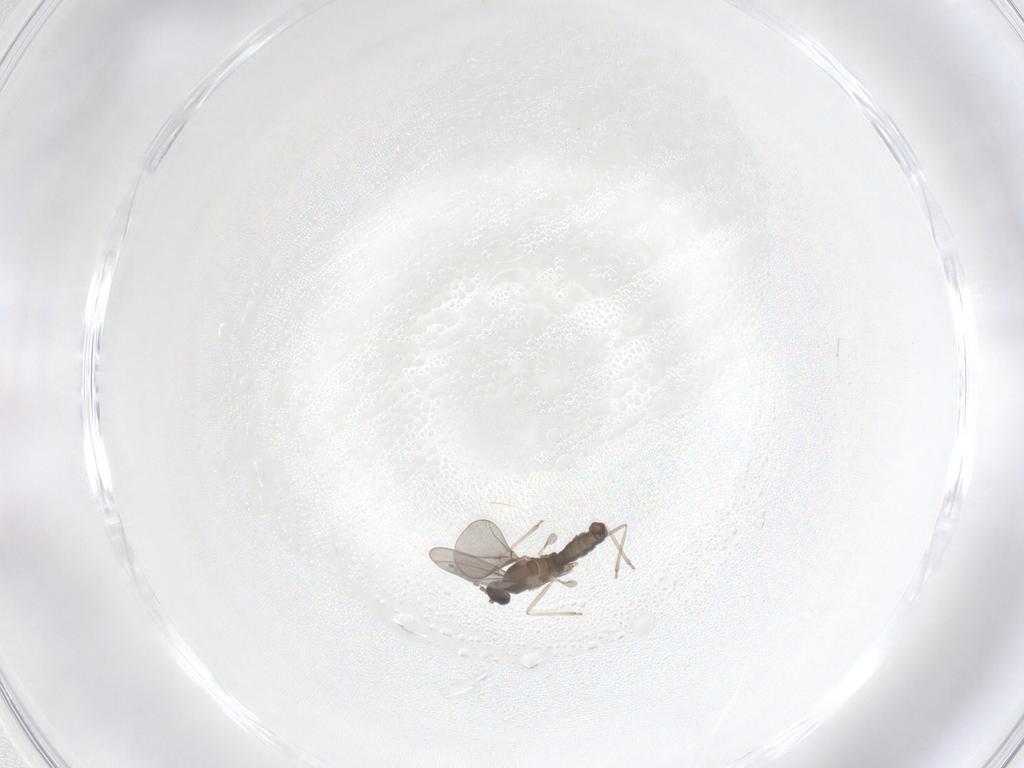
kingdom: Animalia
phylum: Arthropoda
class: Insecta
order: Diptera
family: Cecidomyiidae
